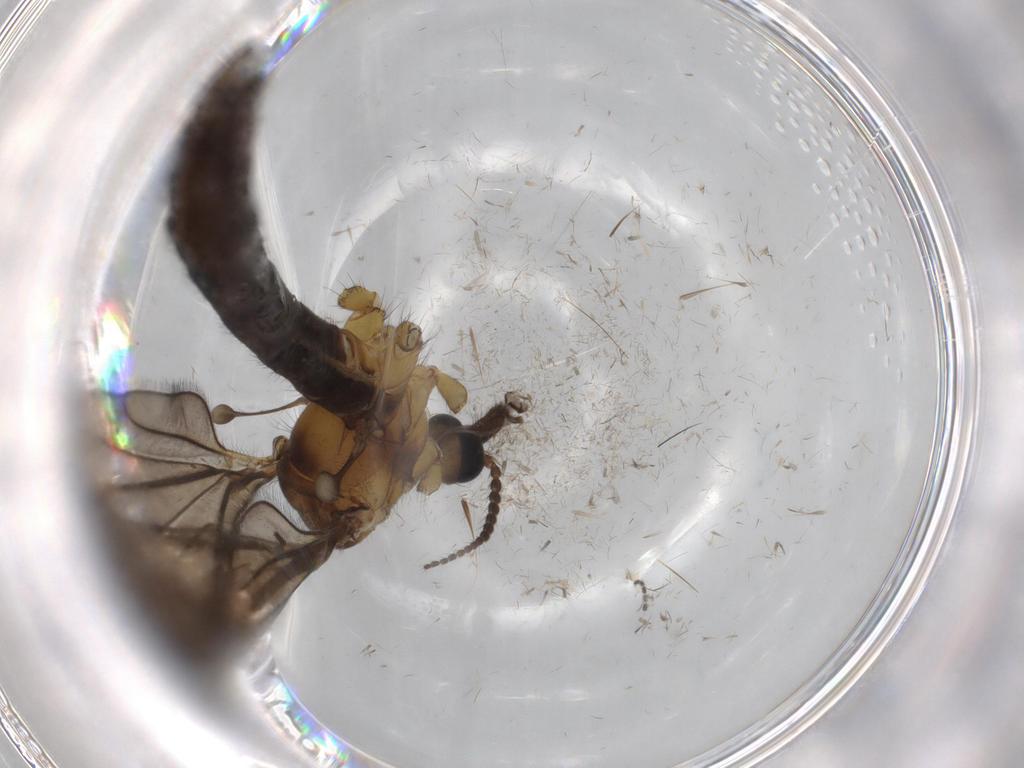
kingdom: Animalia
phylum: Arthropoda
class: Insecta
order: Diptera
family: Limoniidae
